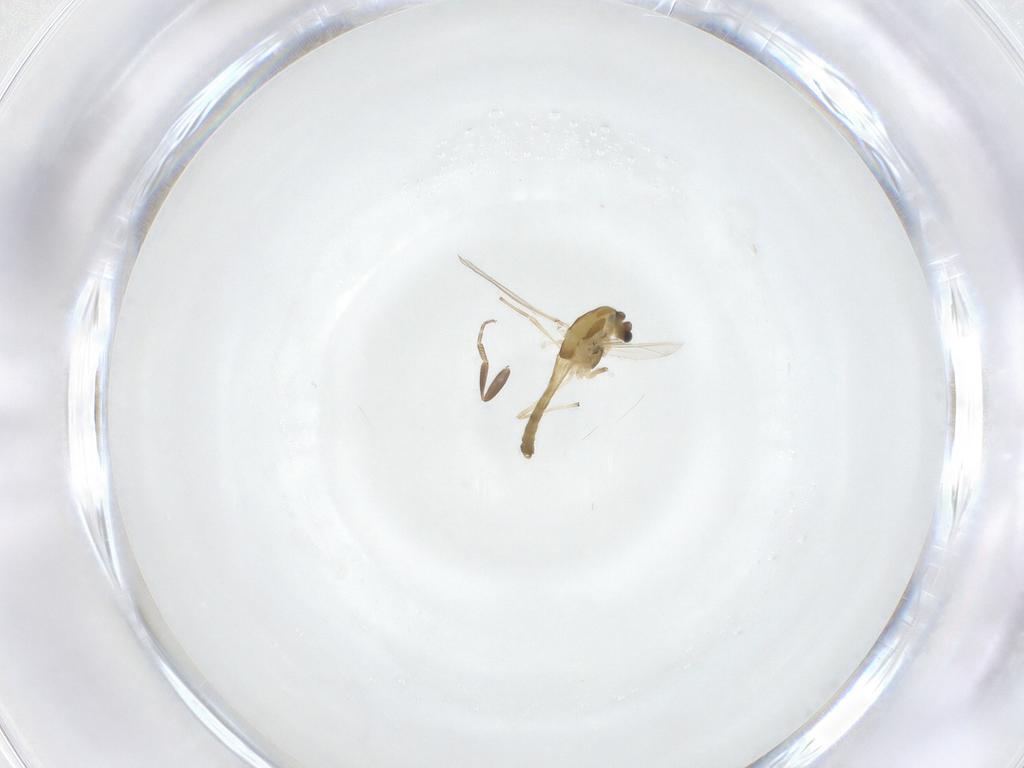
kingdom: Animalia
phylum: Arthropoda
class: Insecta
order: Diptera
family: Chironomidae
